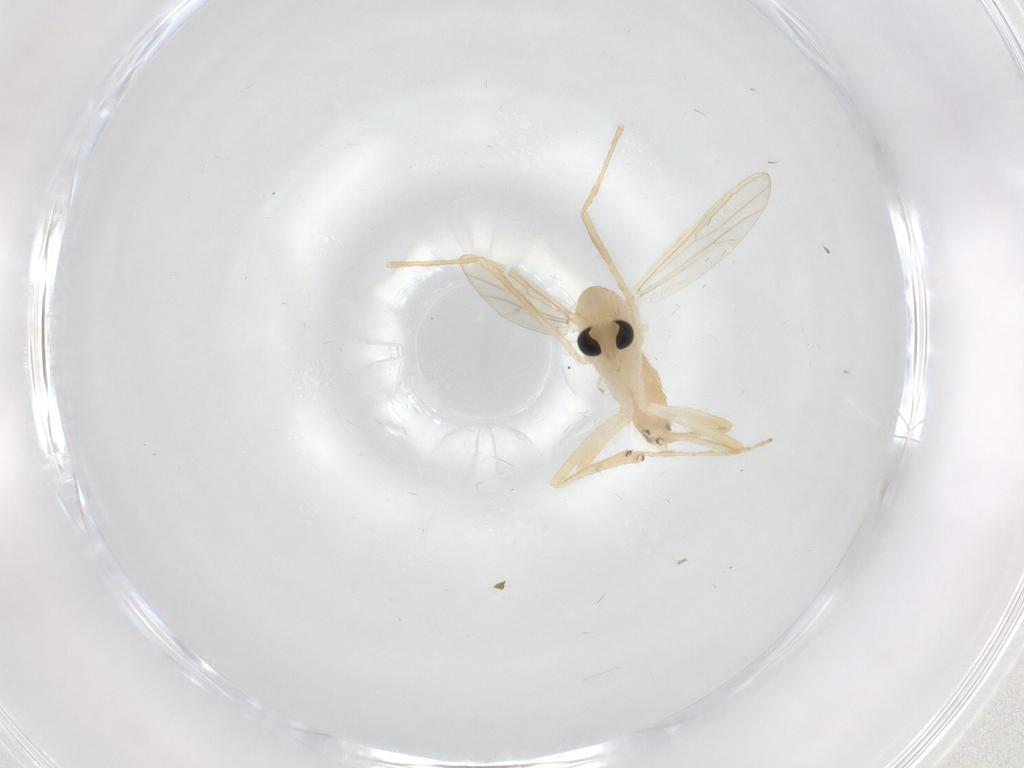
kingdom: Animalia
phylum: Arthropoda
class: Insecta
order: Diptera
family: Chironomidae
